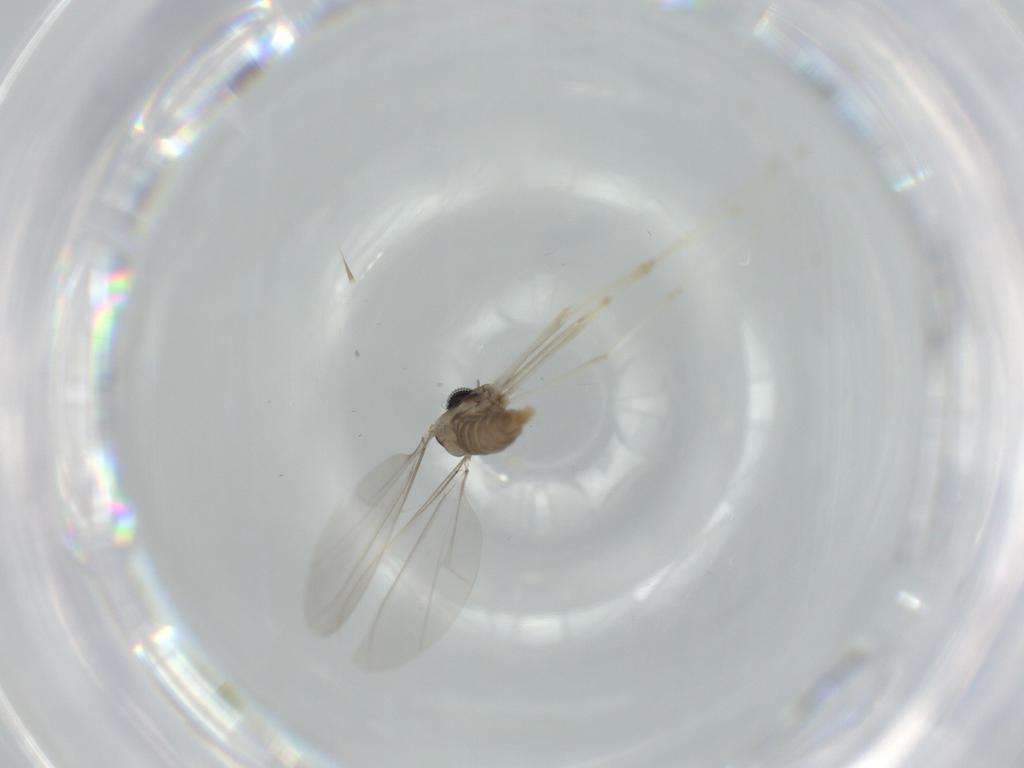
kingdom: Animalia
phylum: Arthropoda
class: Insecta
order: Diptera
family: Cecidomyiidae
